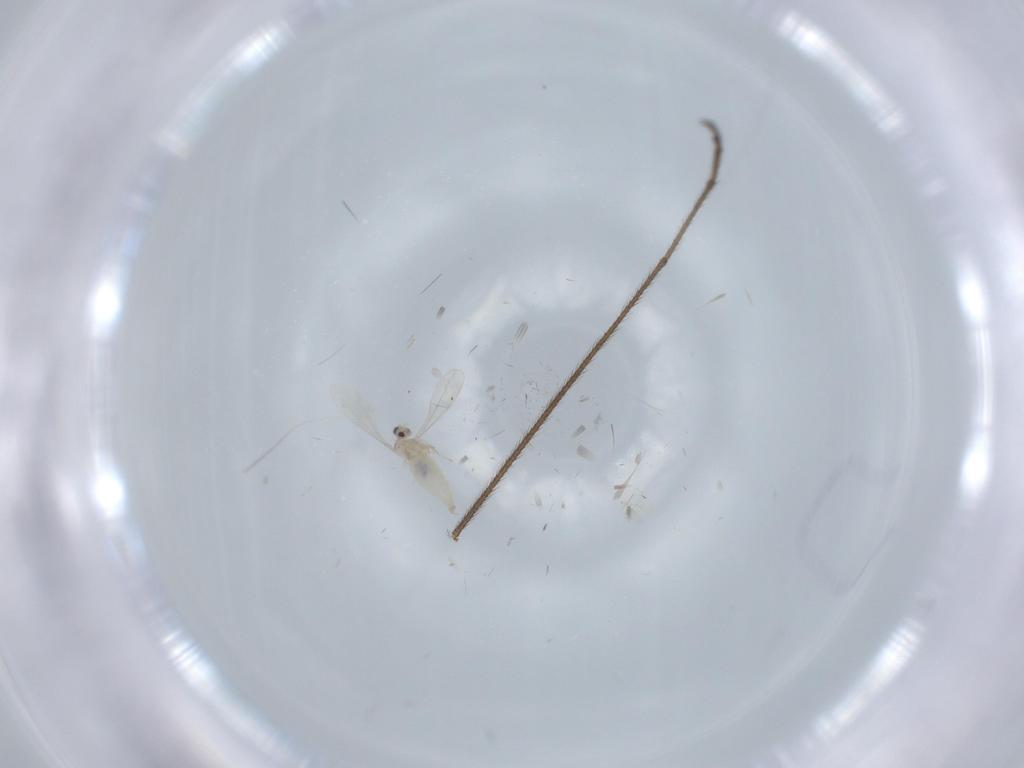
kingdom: Animalia
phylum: Arthropoda
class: Insecta
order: Diptera
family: Cecidomyiidae
